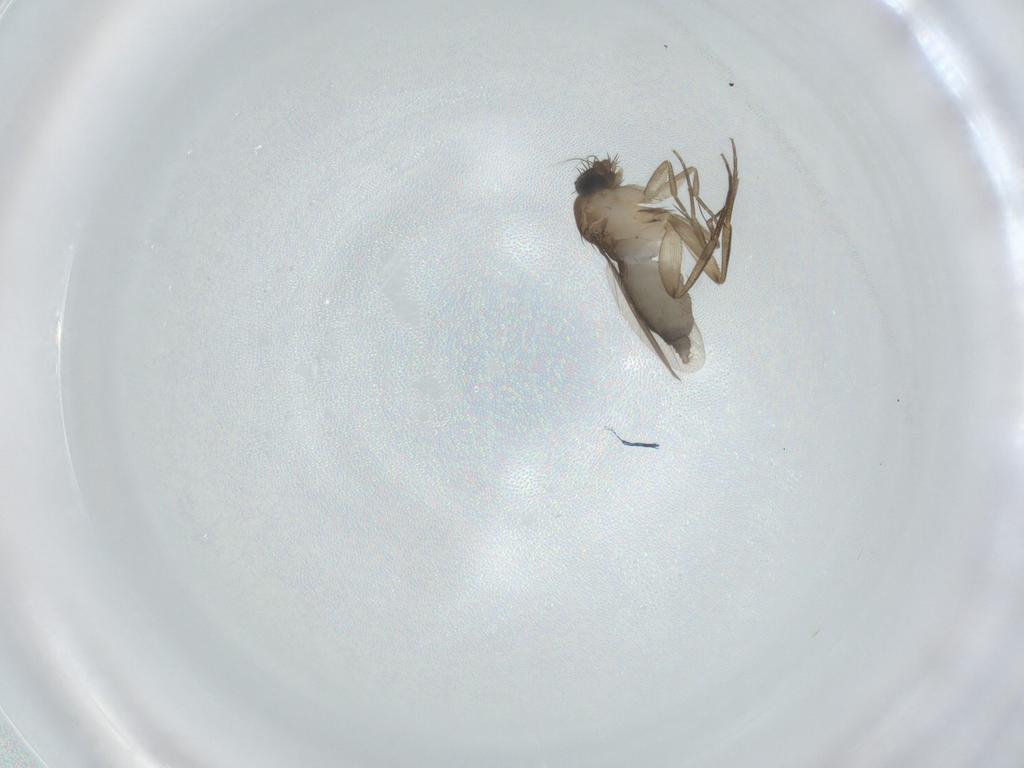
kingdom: Animalia
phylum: Arthropoda
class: Insecta
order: Diptera
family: Phoridae
